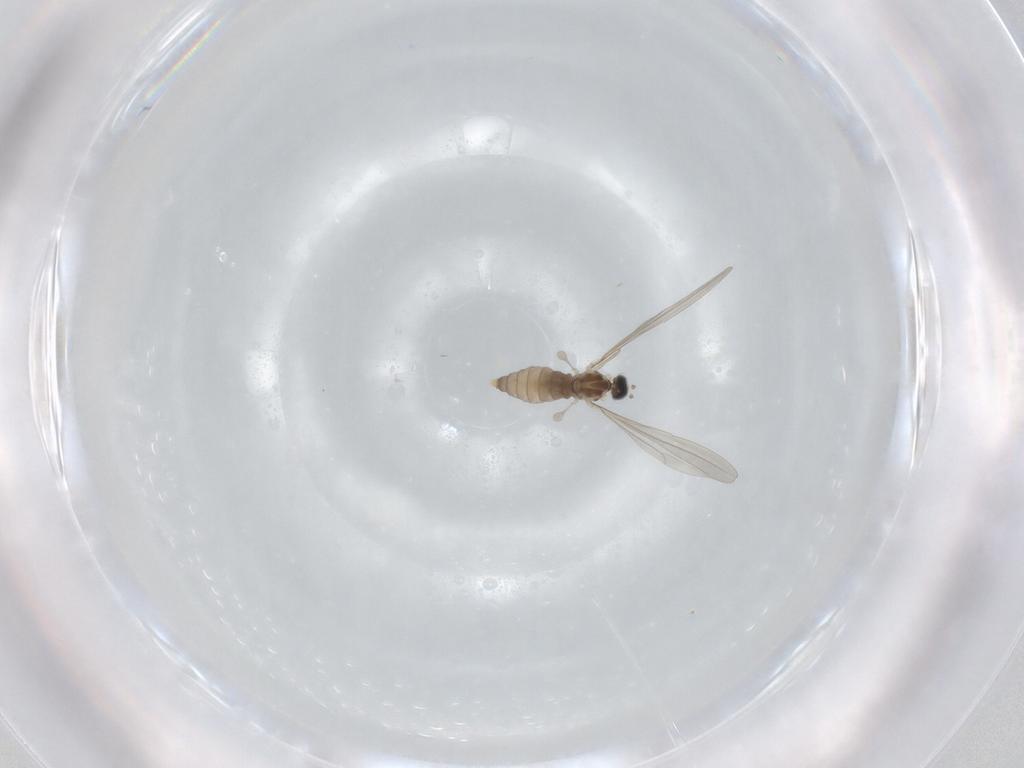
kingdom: Animalia
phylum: Arthropoda
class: Insecta
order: Diptera
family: Cecidomyiidae
